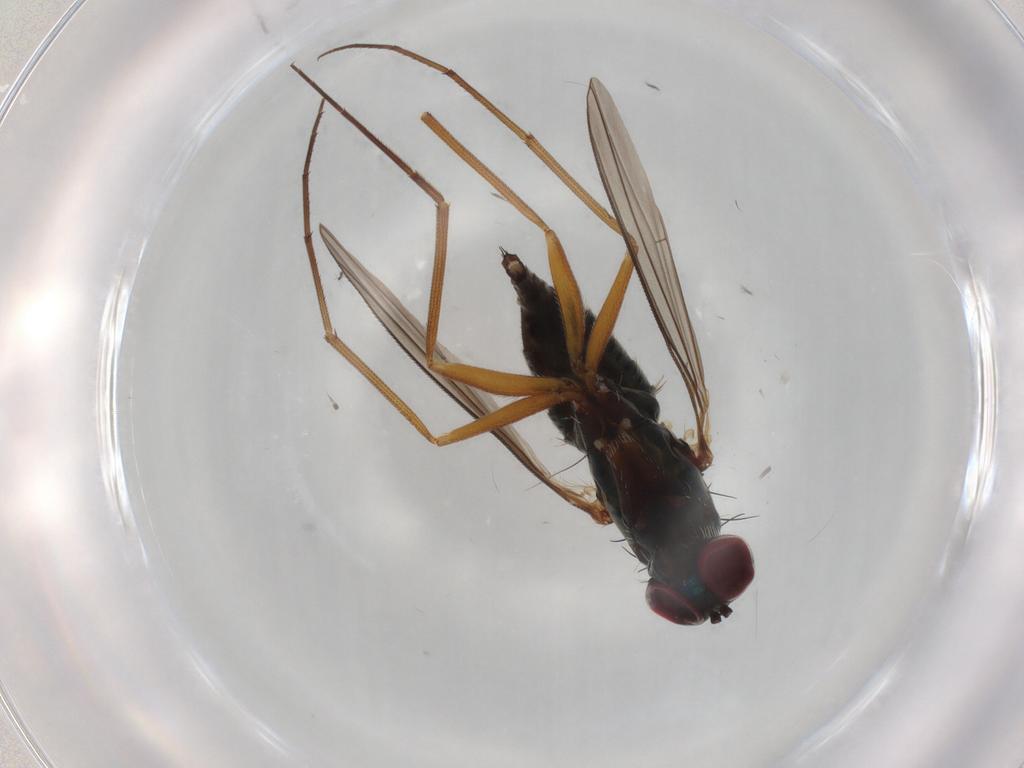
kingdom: Animalia
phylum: Arthropoda
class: Insecta
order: Diptera
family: Dolichopodidae
